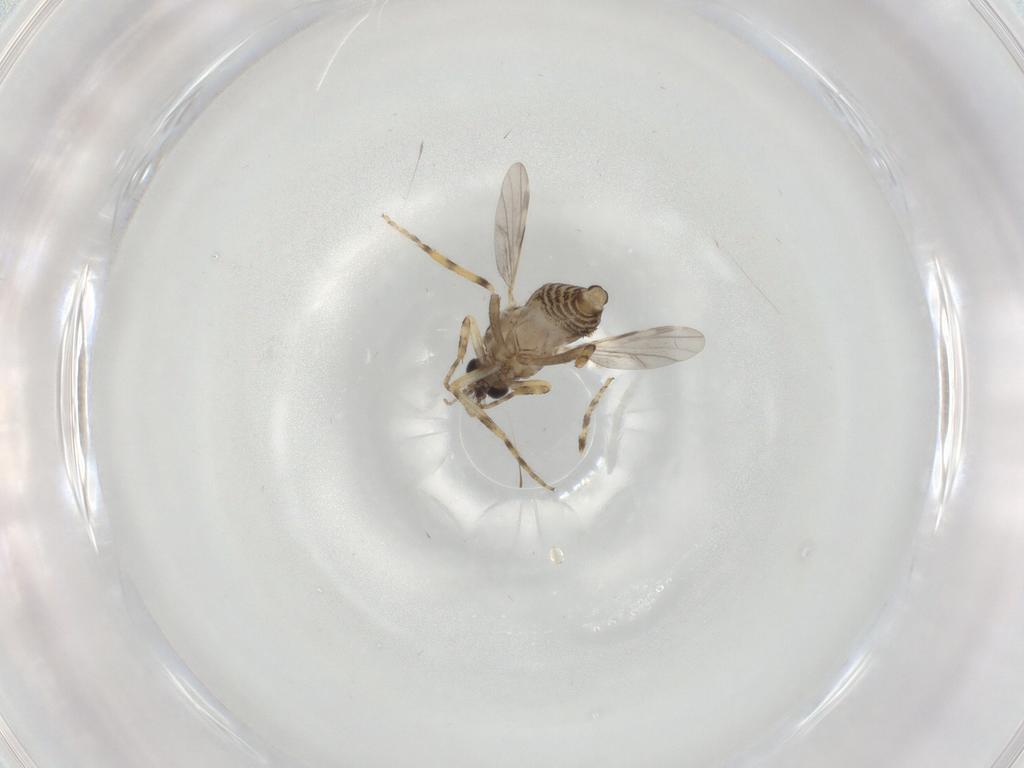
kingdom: Animalia
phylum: Arthropoda
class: Insecta
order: Diptera
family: Ceratopogonidae
